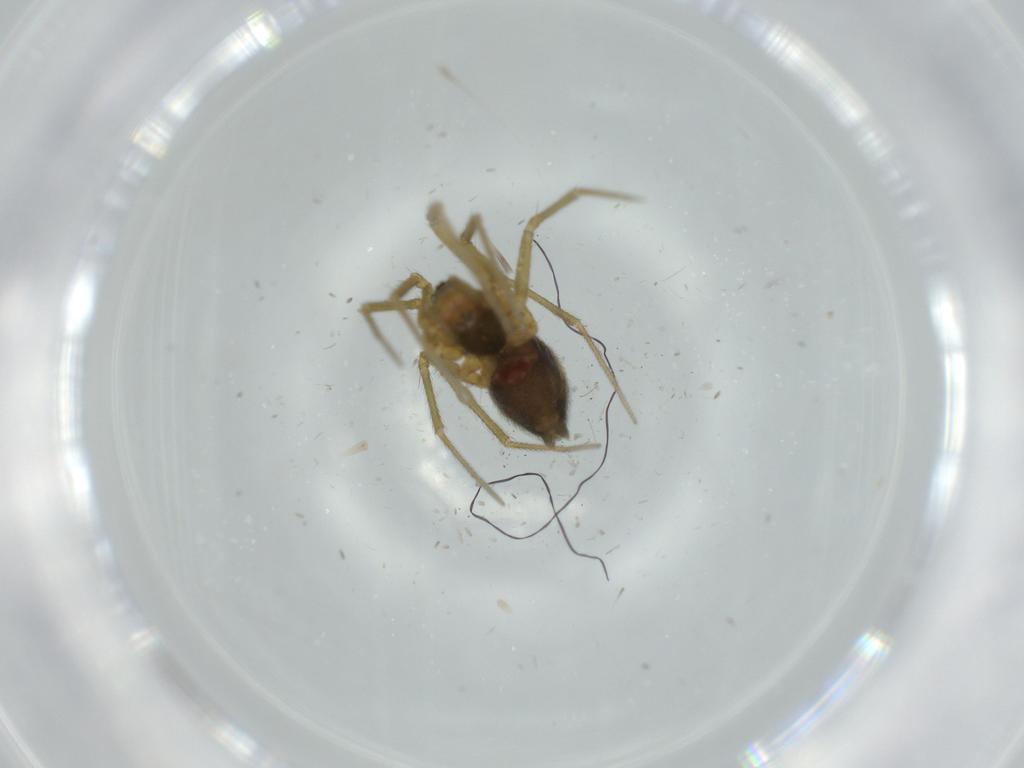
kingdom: Animalia
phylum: Arthropoda
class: Arachnida
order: Araneae
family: Linyphiidae
